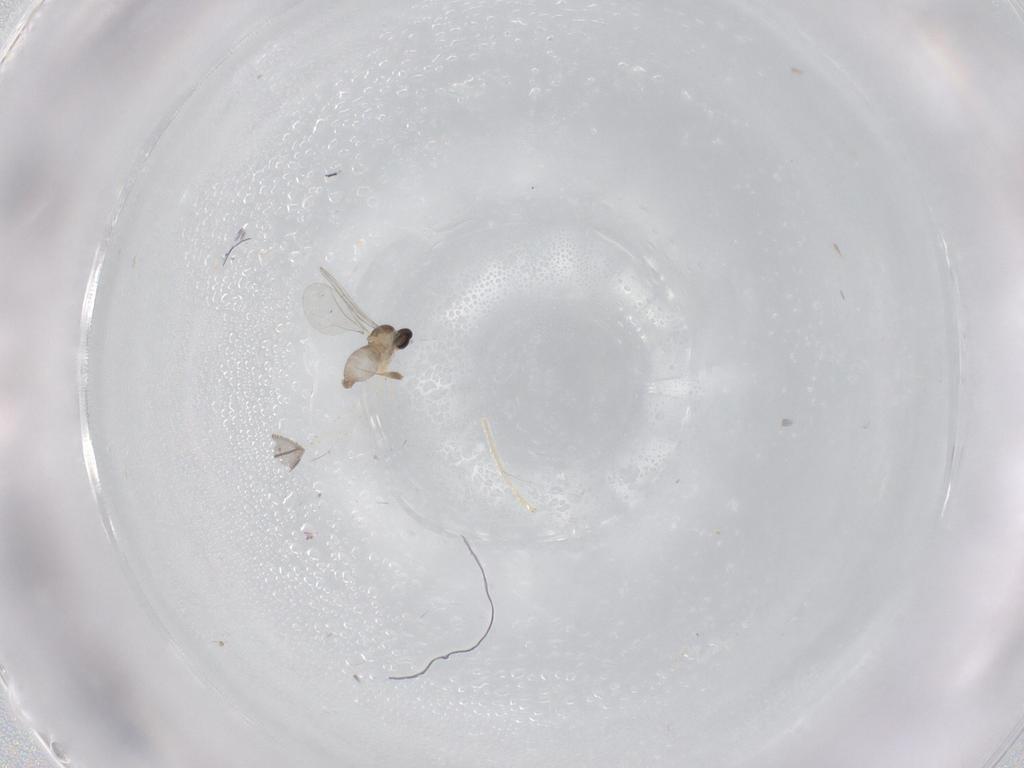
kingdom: Animalia
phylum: Arthropoda
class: Insecta
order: Diptera
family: Cecidomyiidae
